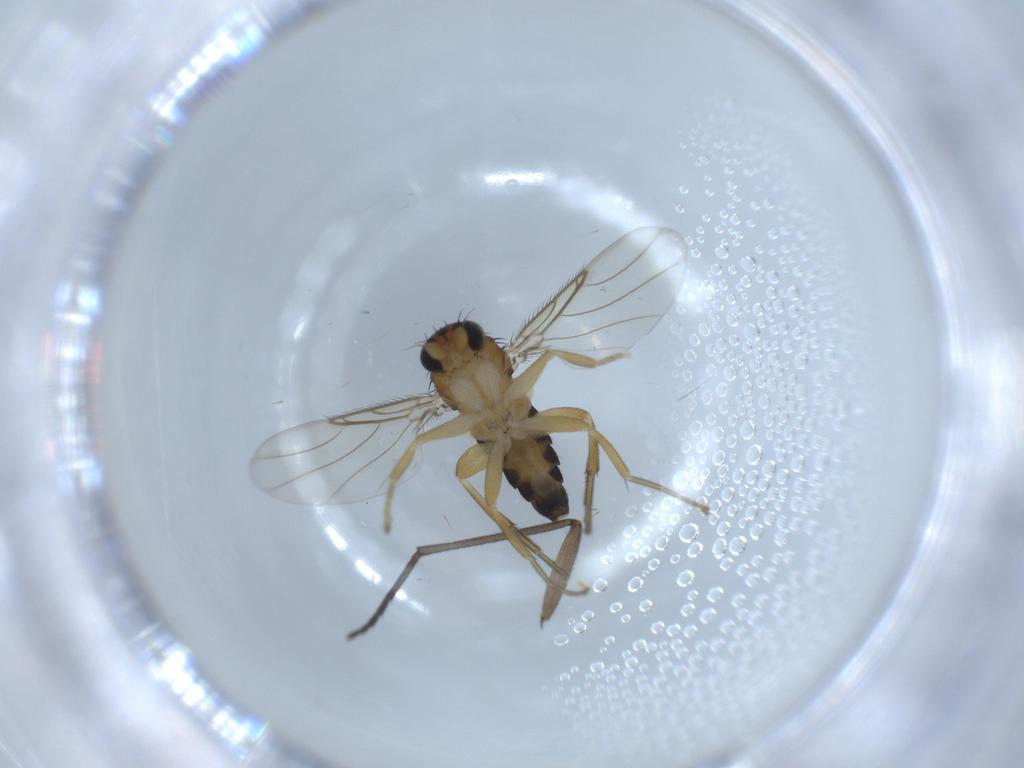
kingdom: Animalia
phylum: Arthropoda
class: Insecta
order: Diptera
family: Phoridae
